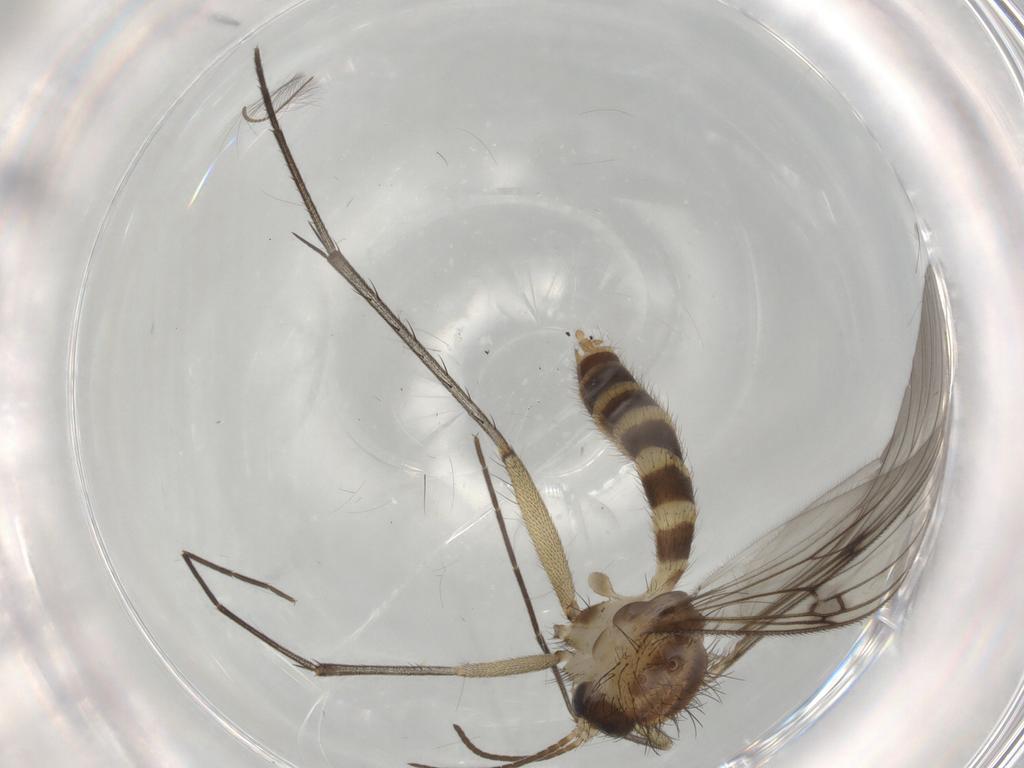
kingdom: Animalia
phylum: Arthropoda
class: Insecta
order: Diptera
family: Mycetophilidae
